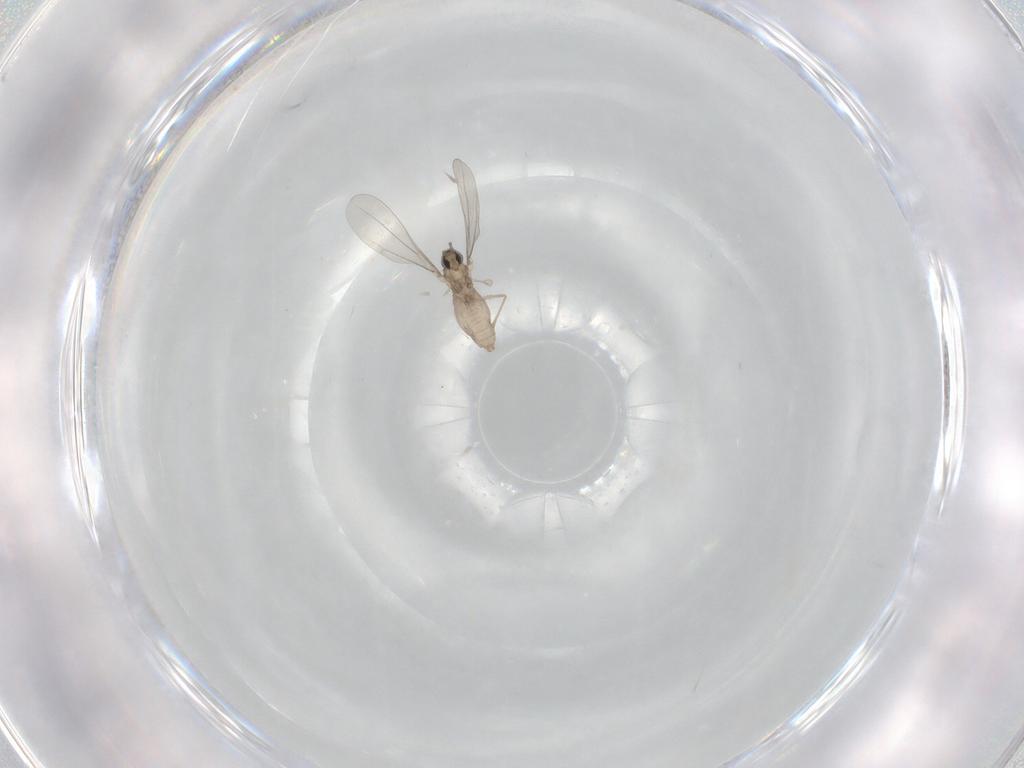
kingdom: Animalia
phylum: Arthropoda
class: Insecta
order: Diptera
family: Cecidomyiidae
